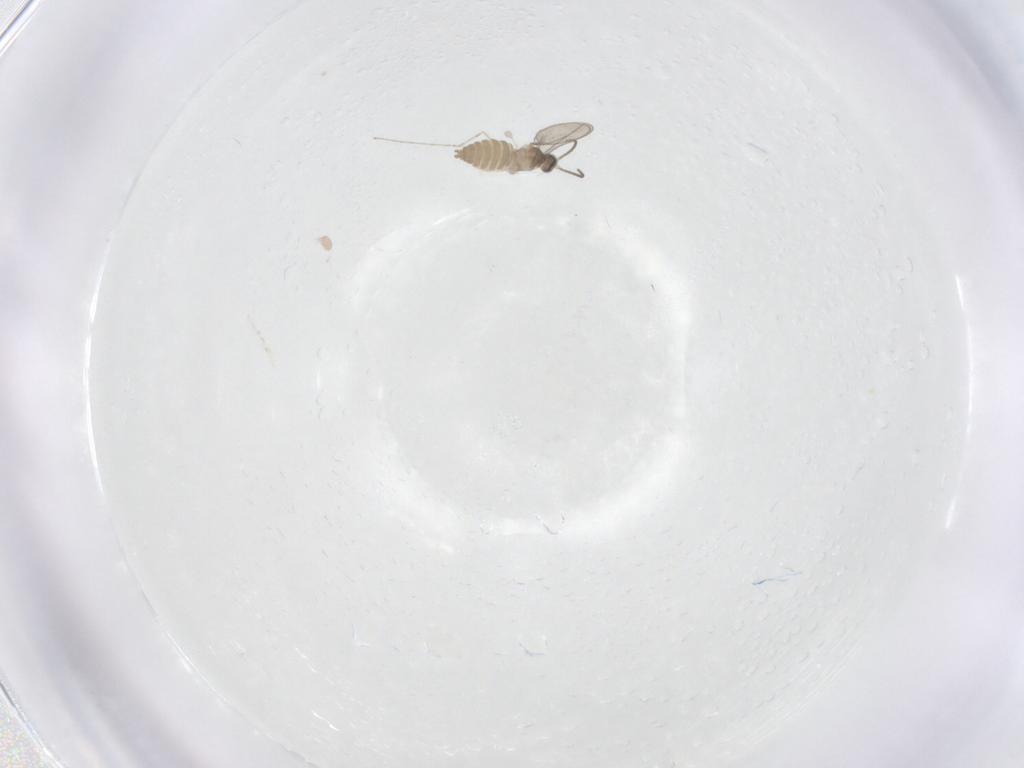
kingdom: Animalia
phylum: Arthropoda
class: Insecta
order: Diptera
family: Cecidomyiidae
